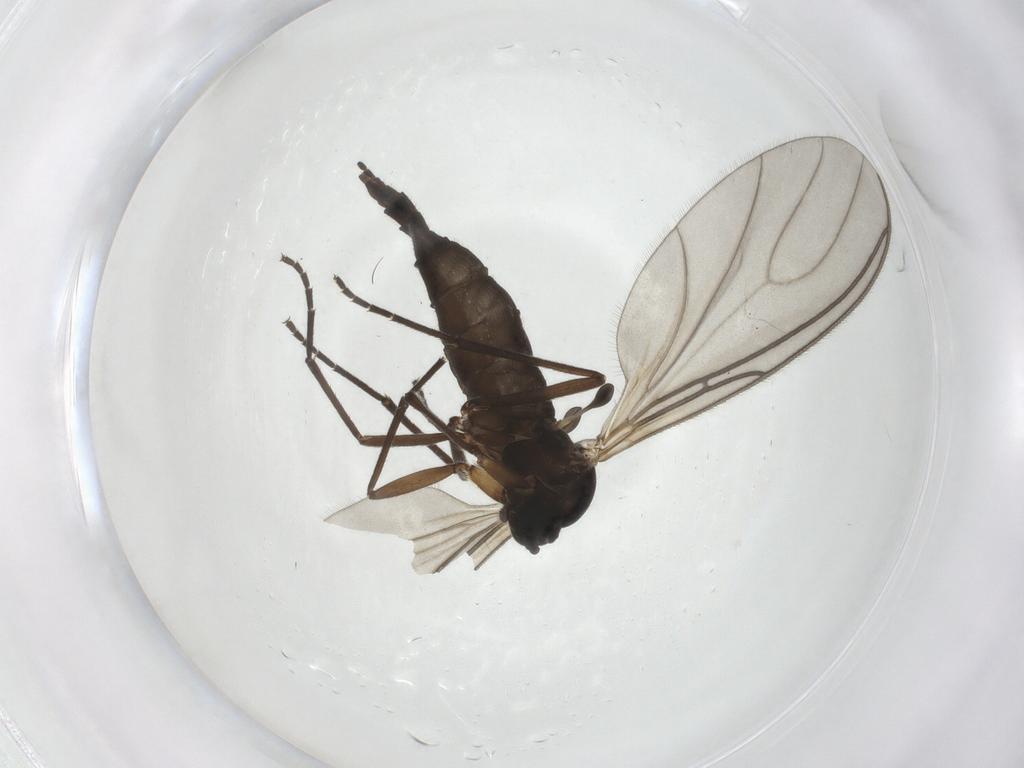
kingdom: Animalia
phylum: Arthropoda
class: Insecta
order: Diptera
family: Sciaridae
